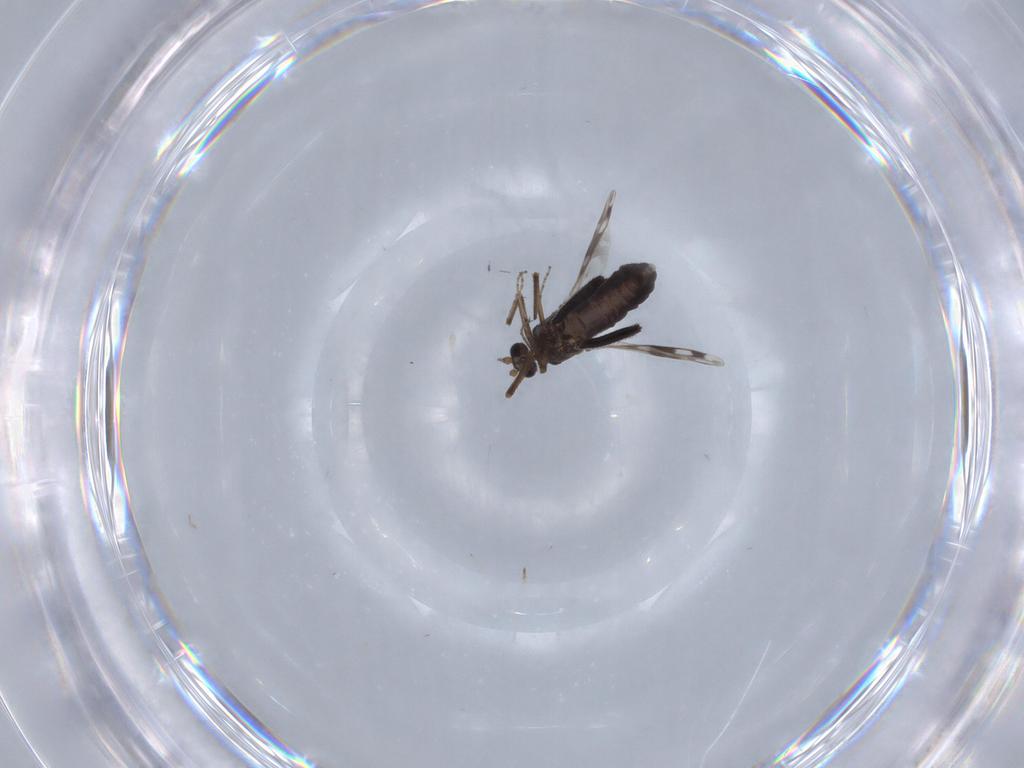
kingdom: Animalia
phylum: Arthropoda
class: Insecta
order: Diptera
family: Ceratopogonidae
